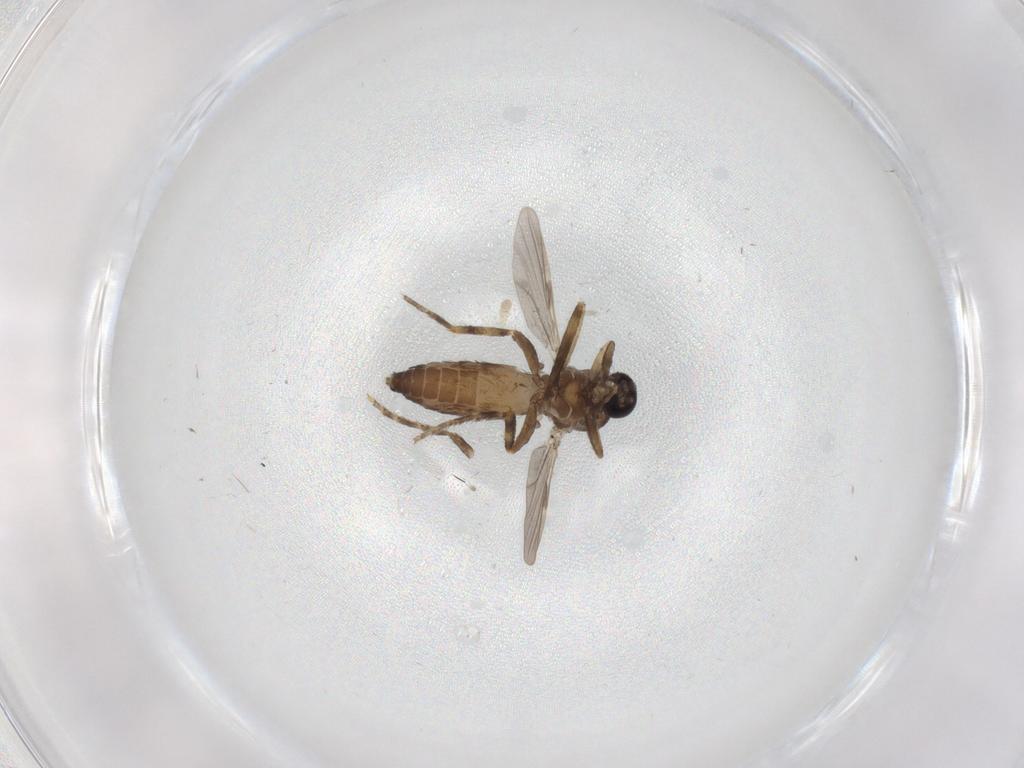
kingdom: Animalia
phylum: Arthropoda
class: Insecta
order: Diptera
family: Ceratopogonidae
